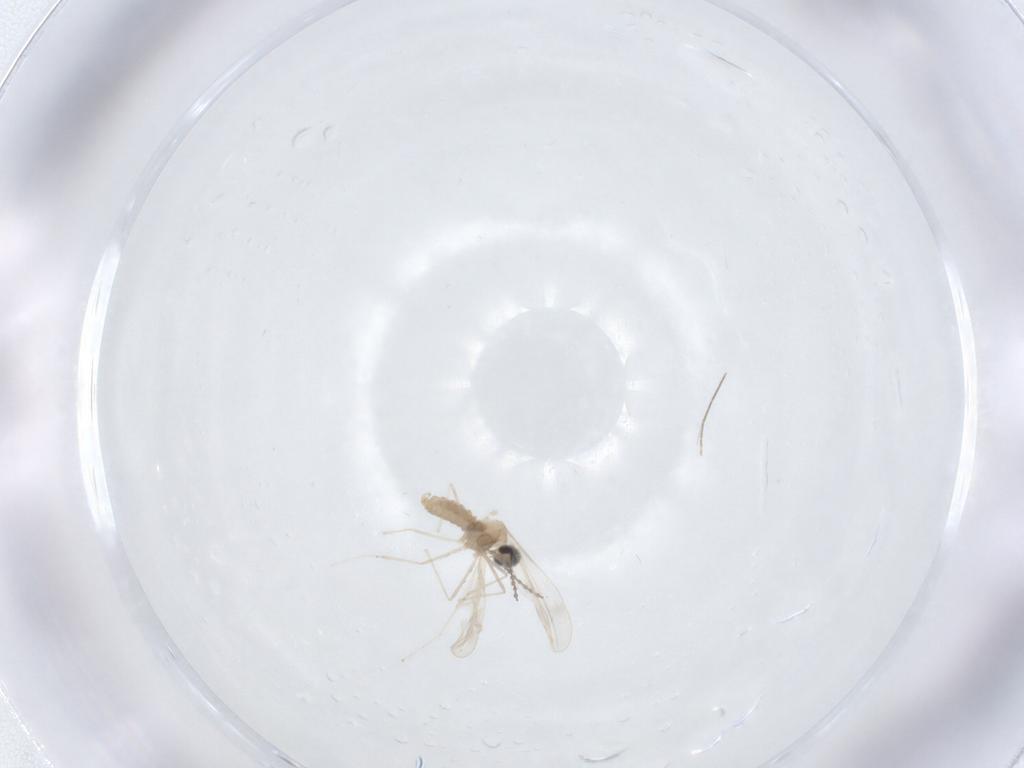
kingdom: Animalia
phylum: Arthropoda
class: Insecta
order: Diptera
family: Chironomidae
